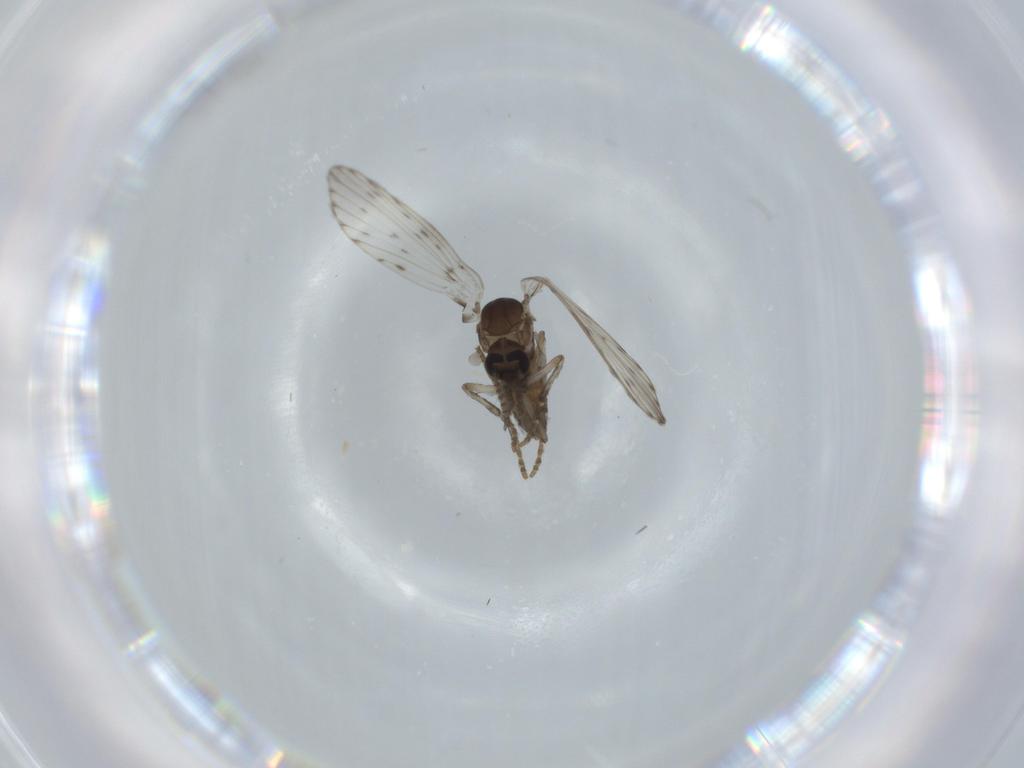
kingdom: Animalia
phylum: Arthropoda
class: Insecta
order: Diptera
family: Psychodidae
